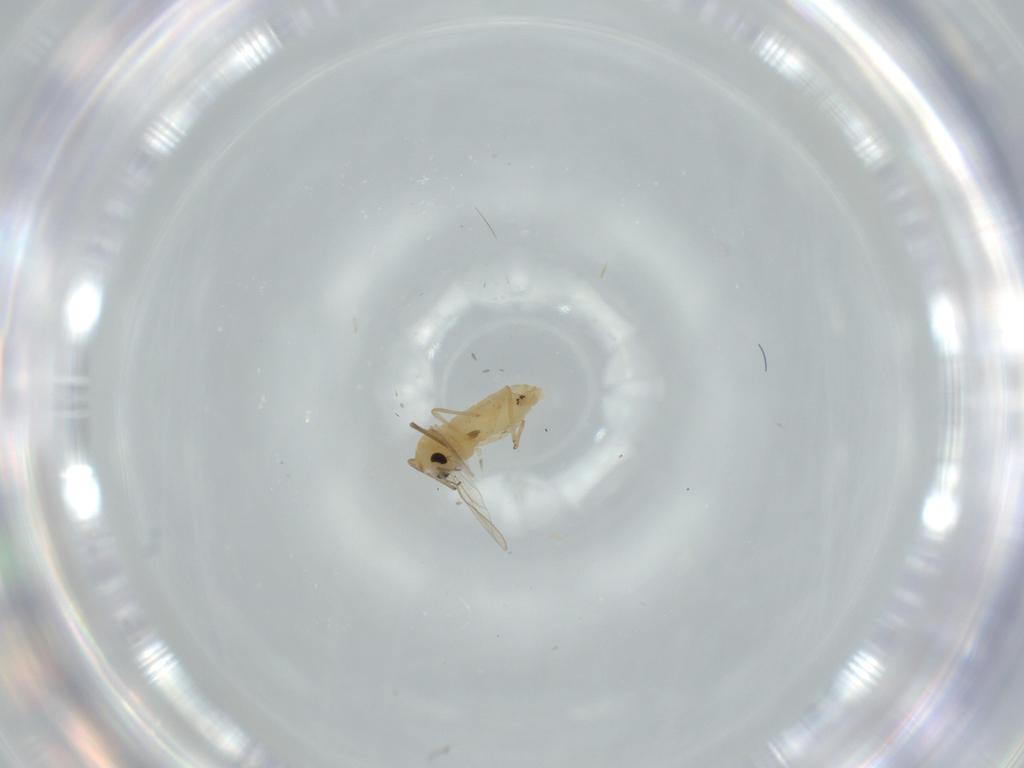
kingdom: Animalia
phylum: Arthropoda
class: Insecta
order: Diptera
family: Chironomidae
